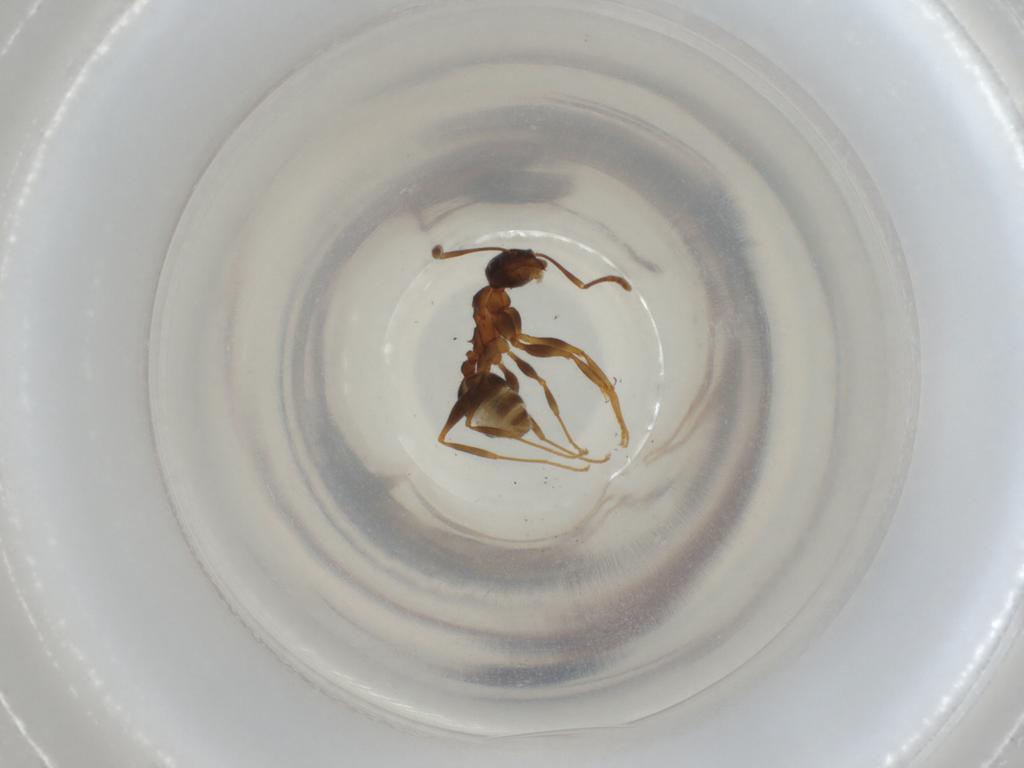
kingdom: Animalia
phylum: Arthropoda
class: Insecta
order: Hymenoptera
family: Formicidae
